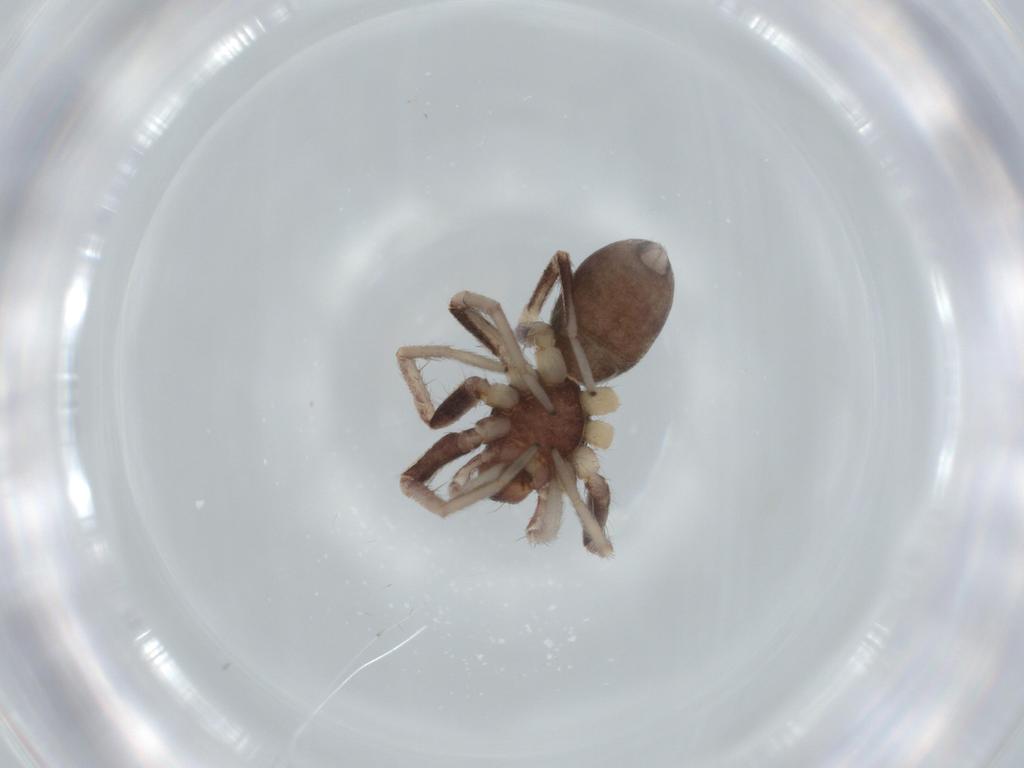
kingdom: Animalia
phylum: Arthropoda
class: Arachnida
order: Araneae
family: Corinnidae
